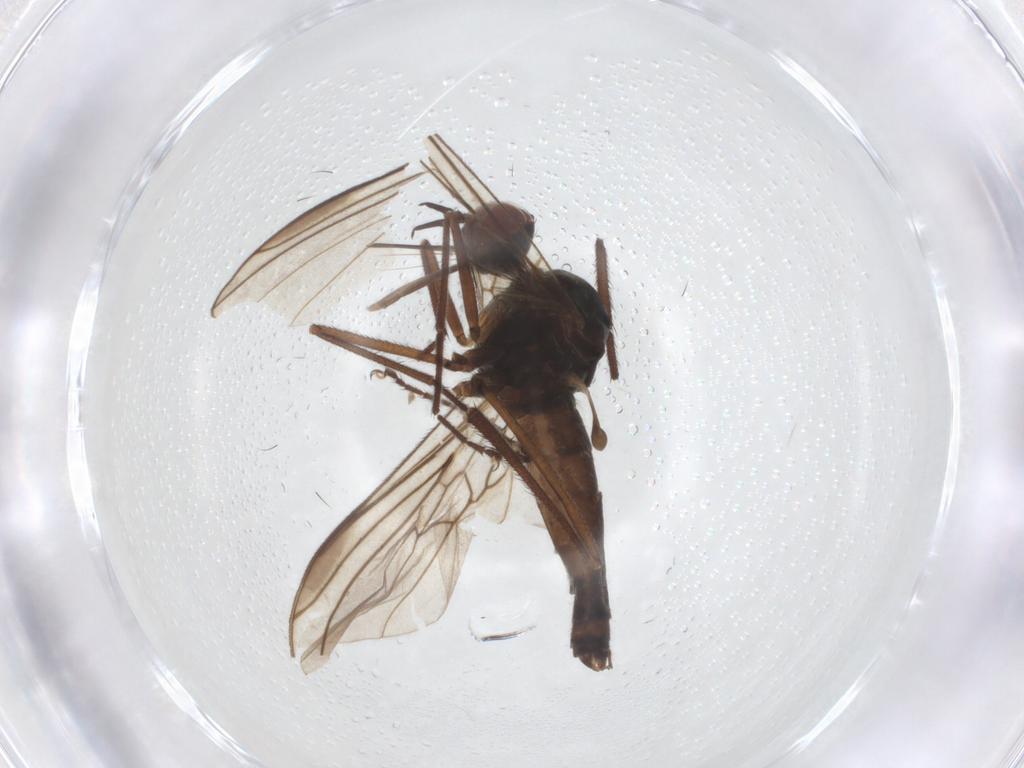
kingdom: Animalia
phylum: Arthropoda
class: Insecta
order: Diptera
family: Empididae
